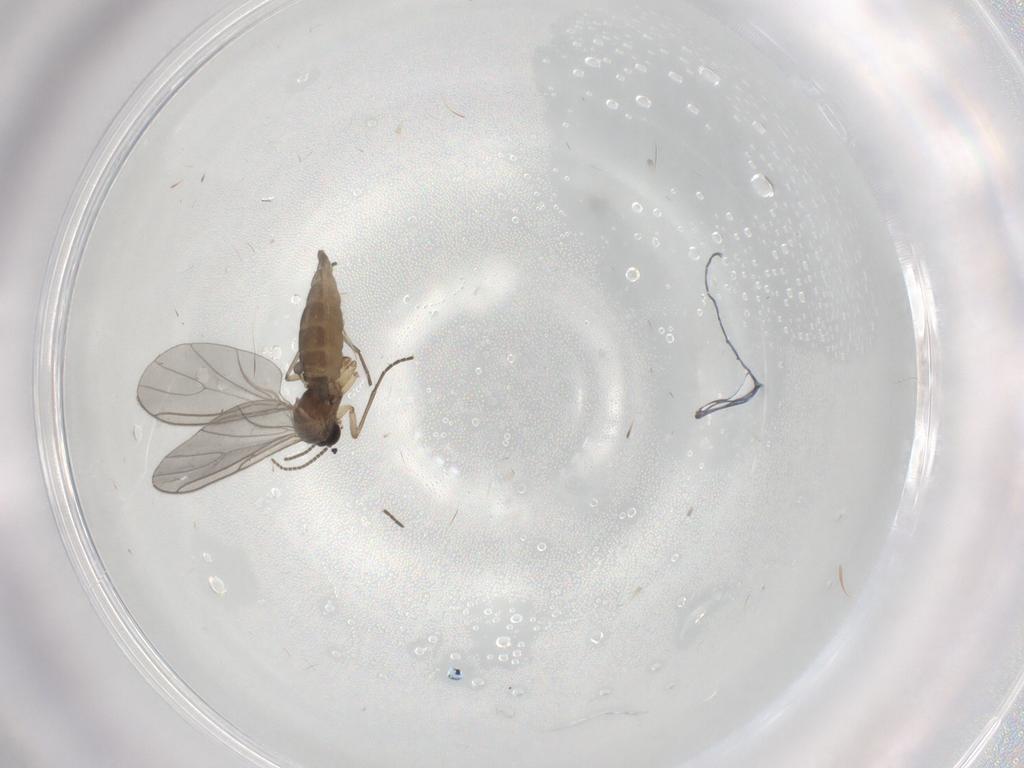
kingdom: Animalia
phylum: Arthropoda
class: Insecta
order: Diptera
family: Sciaridae
